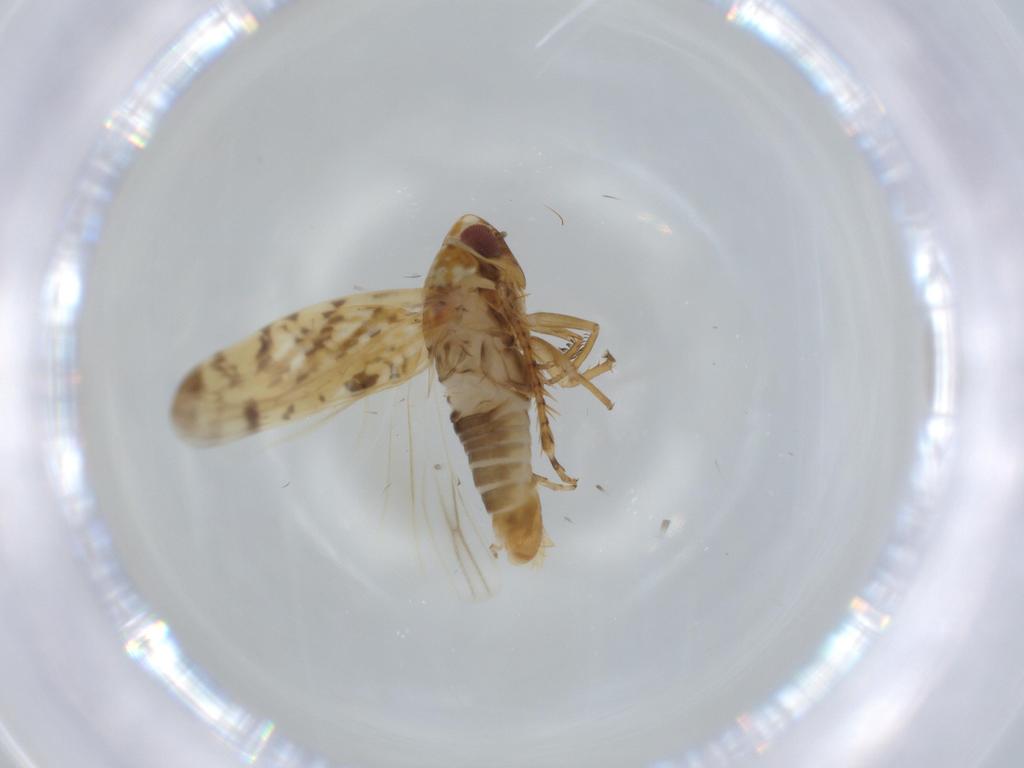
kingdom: Animalia
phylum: Arthropoda
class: Insecta
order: Hemiptera
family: Cicadellidae
